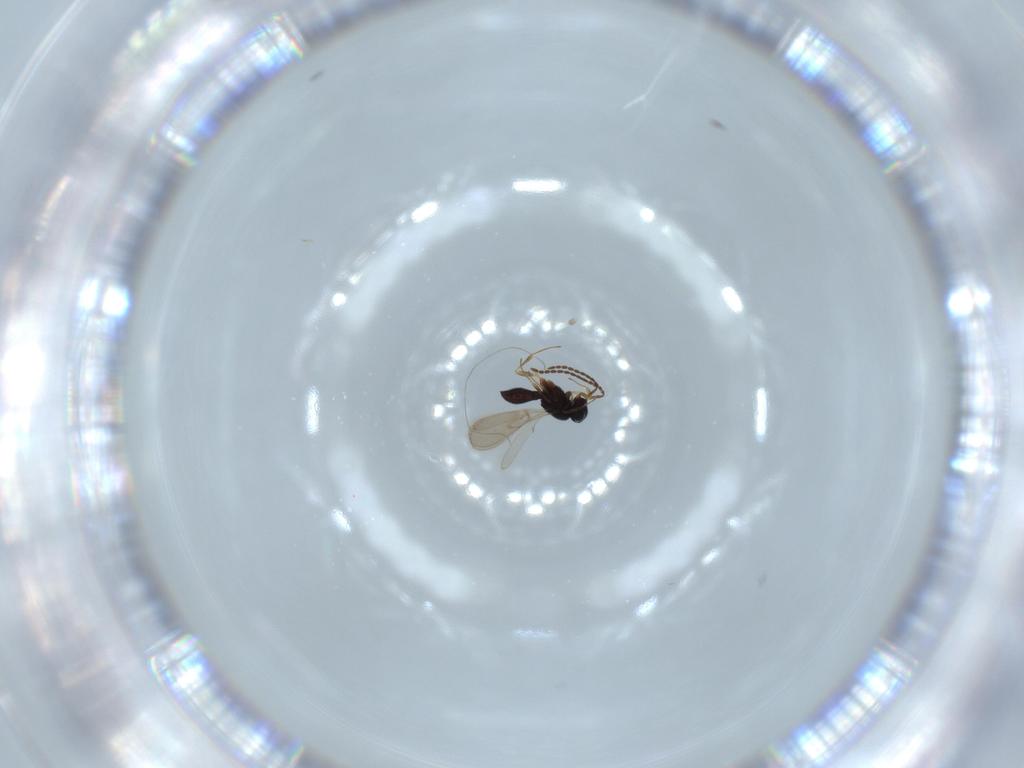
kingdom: Animalia
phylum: Arthropoda
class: Insecta
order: Hymenoptera
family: Scelionidae
